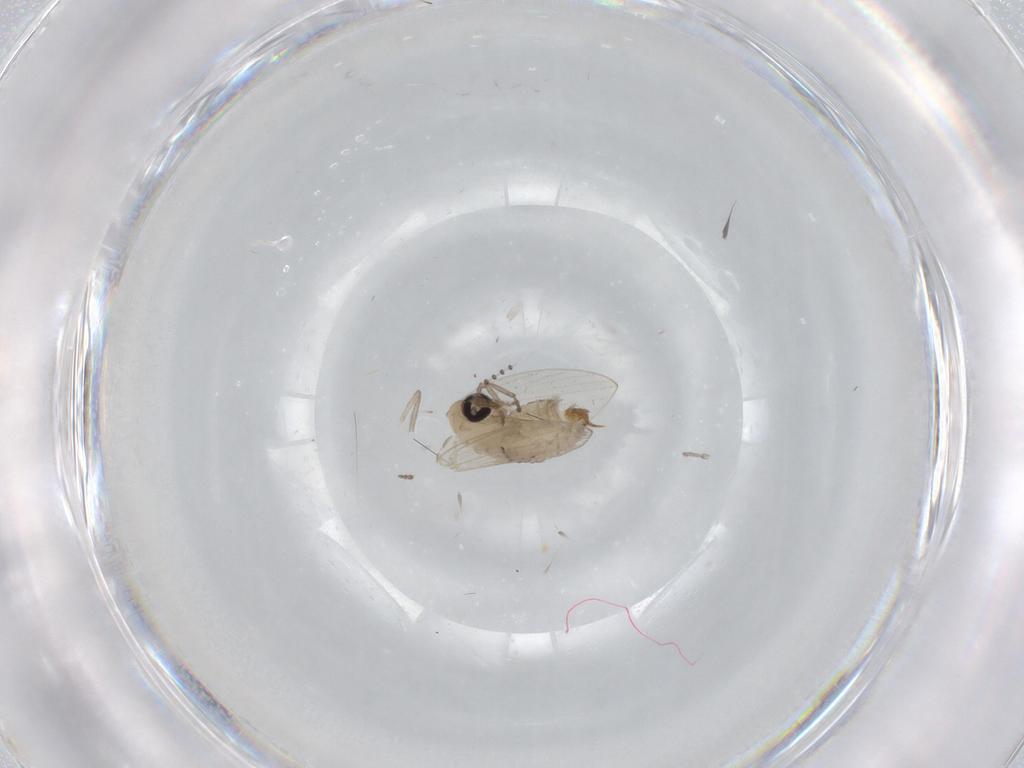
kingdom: Animalia
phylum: Arthropoda
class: Insecta
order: Diptera
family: Psychodidae
